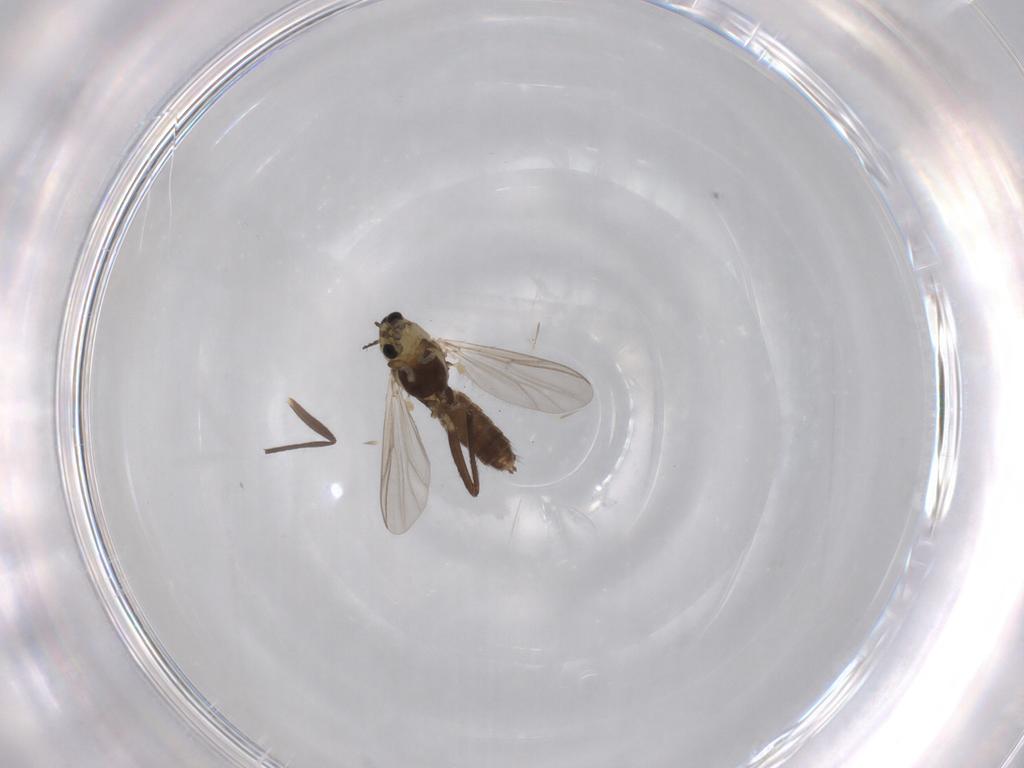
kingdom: Animalia
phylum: Arthropoda
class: Insecta
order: Diptera
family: Chironomidae
